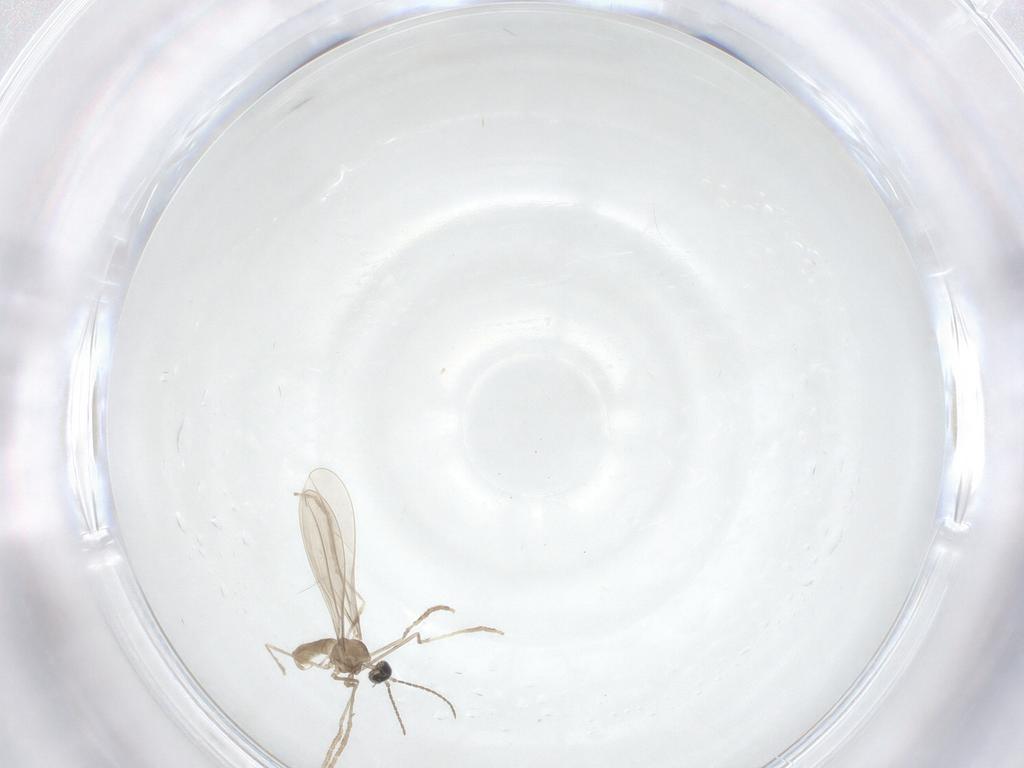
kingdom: Animalia
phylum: Arthropoda
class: Insecta
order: Diptera
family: Cecidomyiidae
